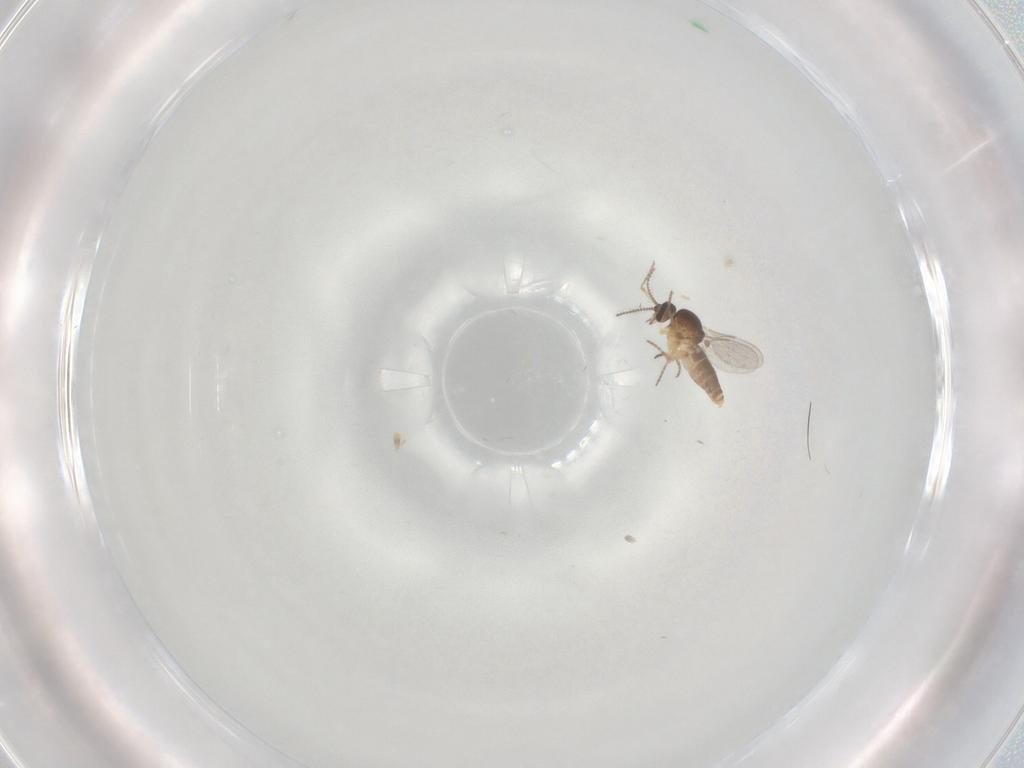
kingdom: Animalia
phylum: Arthropoda
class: Insecta
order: Diptera
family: Ceratopogonidae
